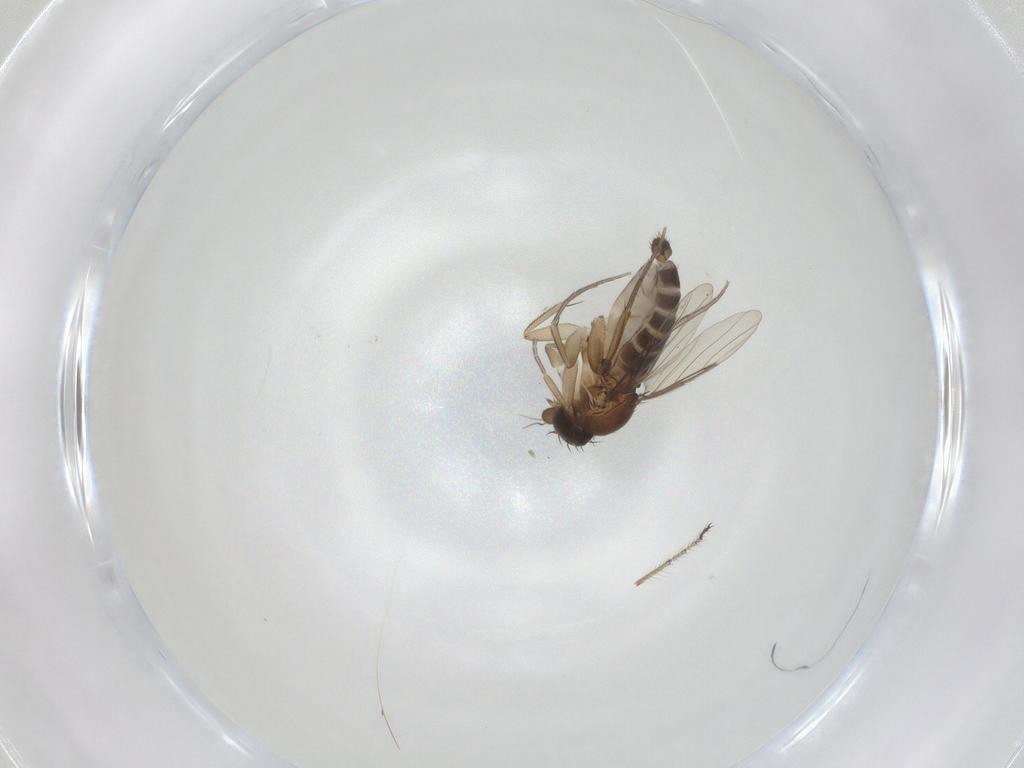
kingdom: Animalia
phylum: Arthropoda
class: Insecta
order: Diptera
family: Phoridae
